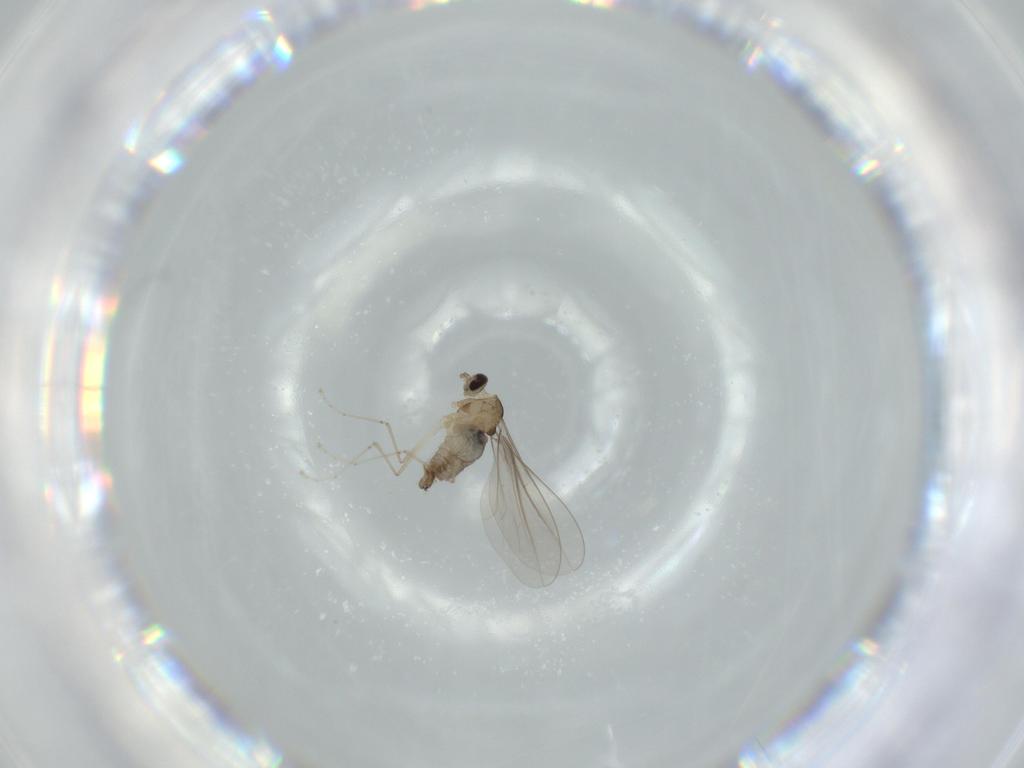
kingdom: Animalia
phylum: Arthropoda
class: Insecta
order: Diptera
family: Cecidomyiidae
